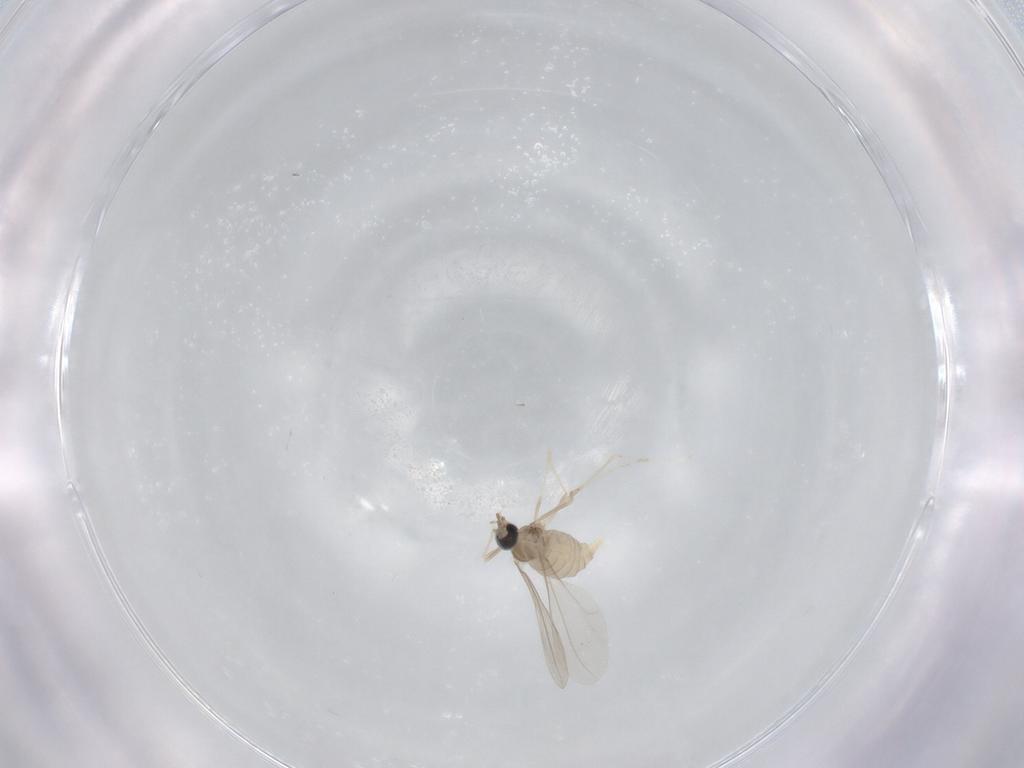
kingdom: Animalia
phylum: Arthropoda
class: Insecta
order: Diptera
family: Cecidomyiidae
